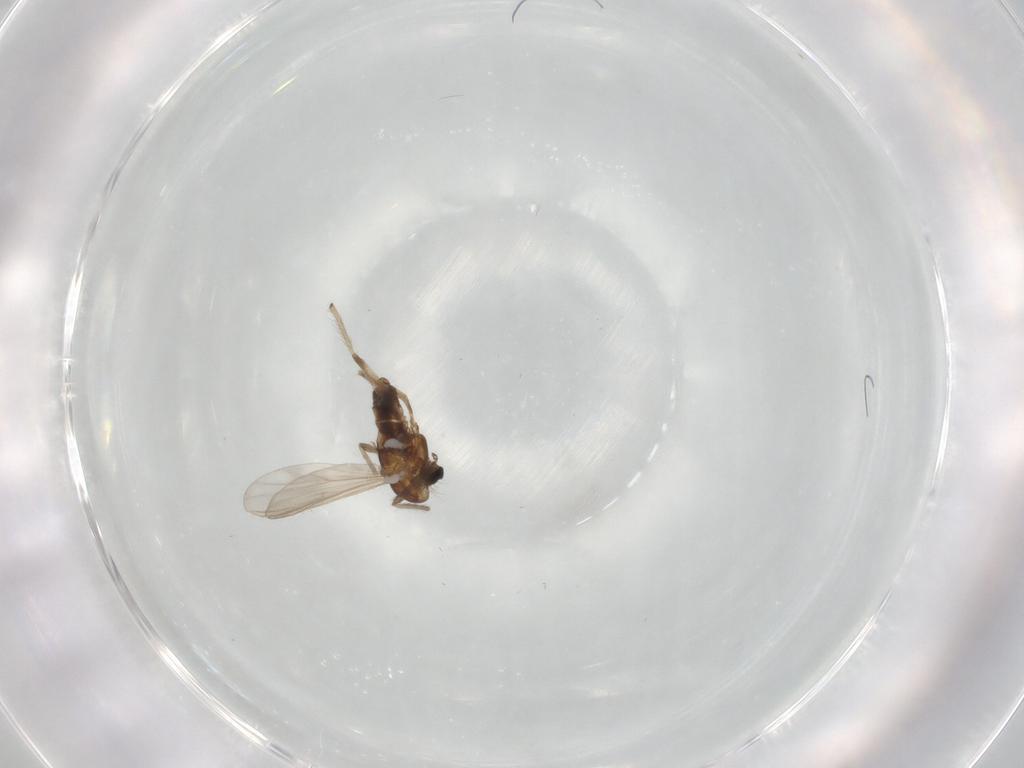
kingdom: Animalia
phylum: Arthropoda
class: Insecta
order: Diptera
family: Chironomidae
